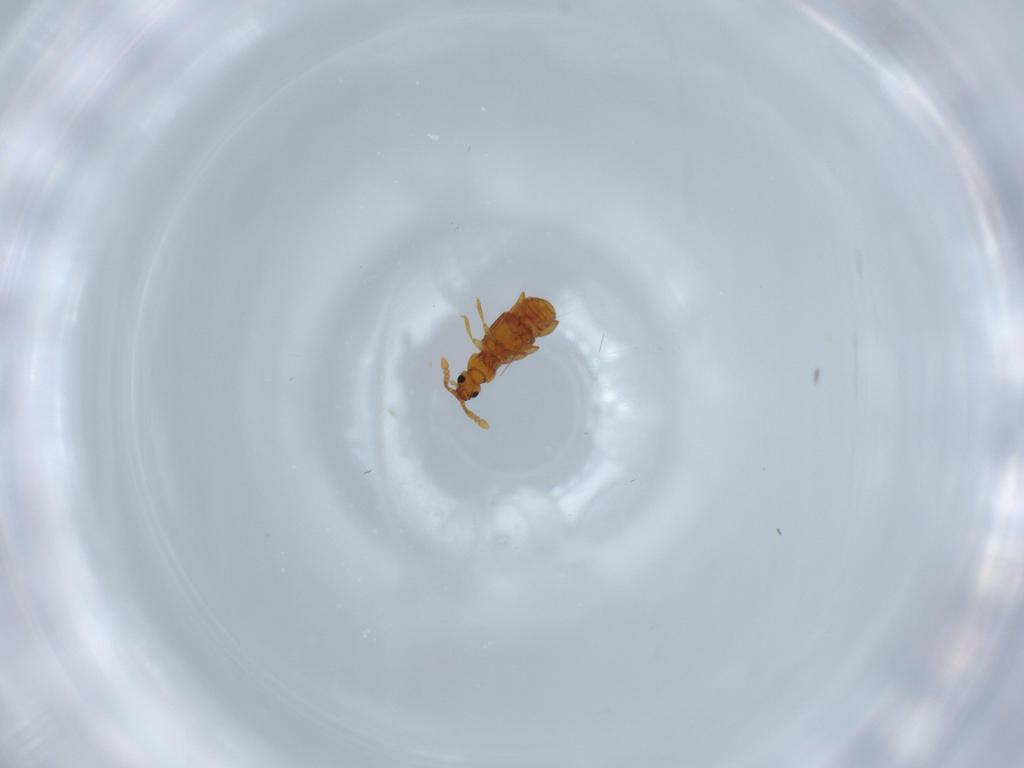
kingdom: Animalia
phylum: Arthropoda
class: Insecta
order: Coleoptera
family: Staphylinidae
